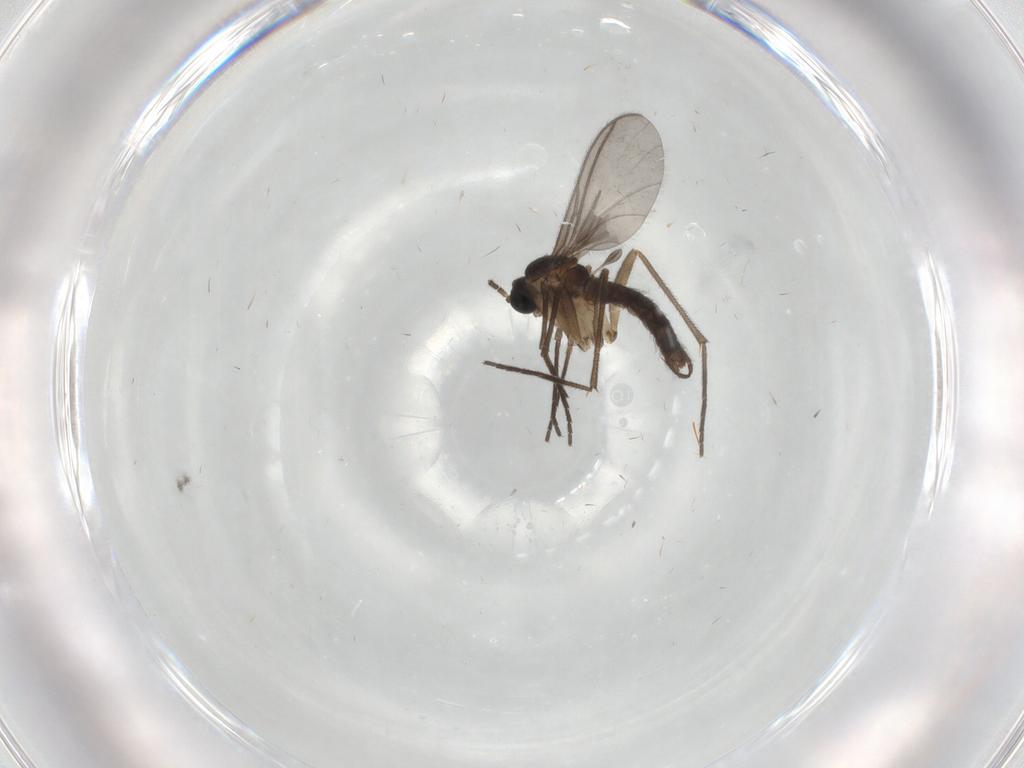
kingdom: Animalia
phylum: Arthropoda
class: Insecta
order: Diptera
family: Sciaridae
